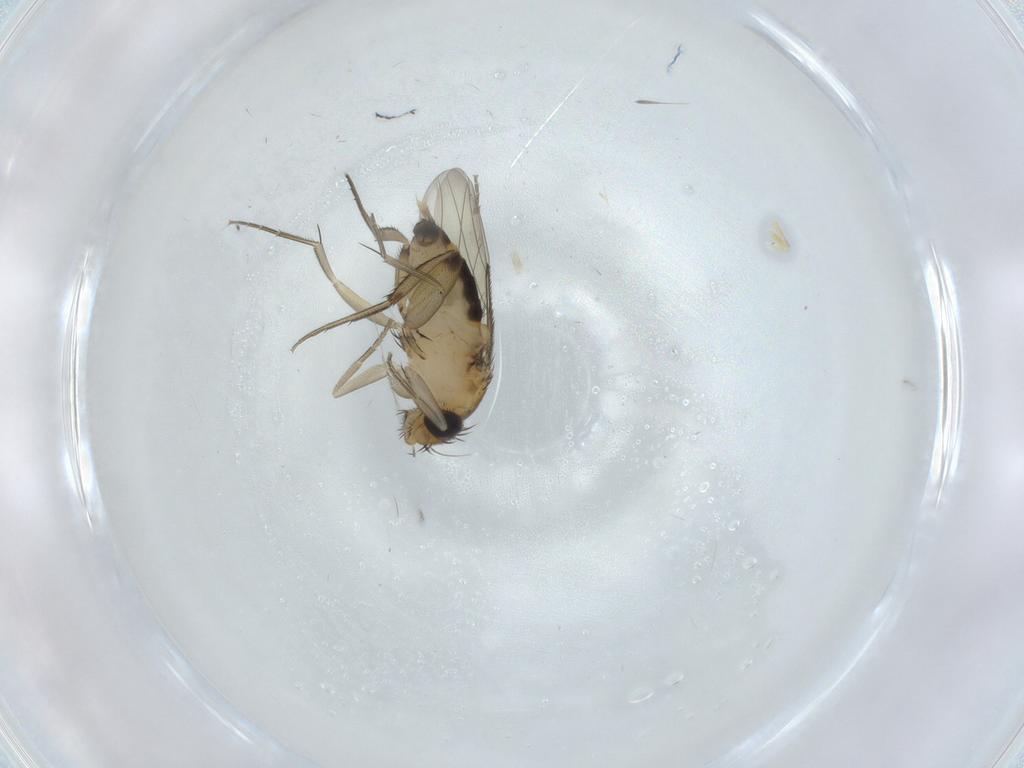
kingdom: Animalia
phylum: Arthropoda
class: Insecta
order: Diptera
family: Phoridae
